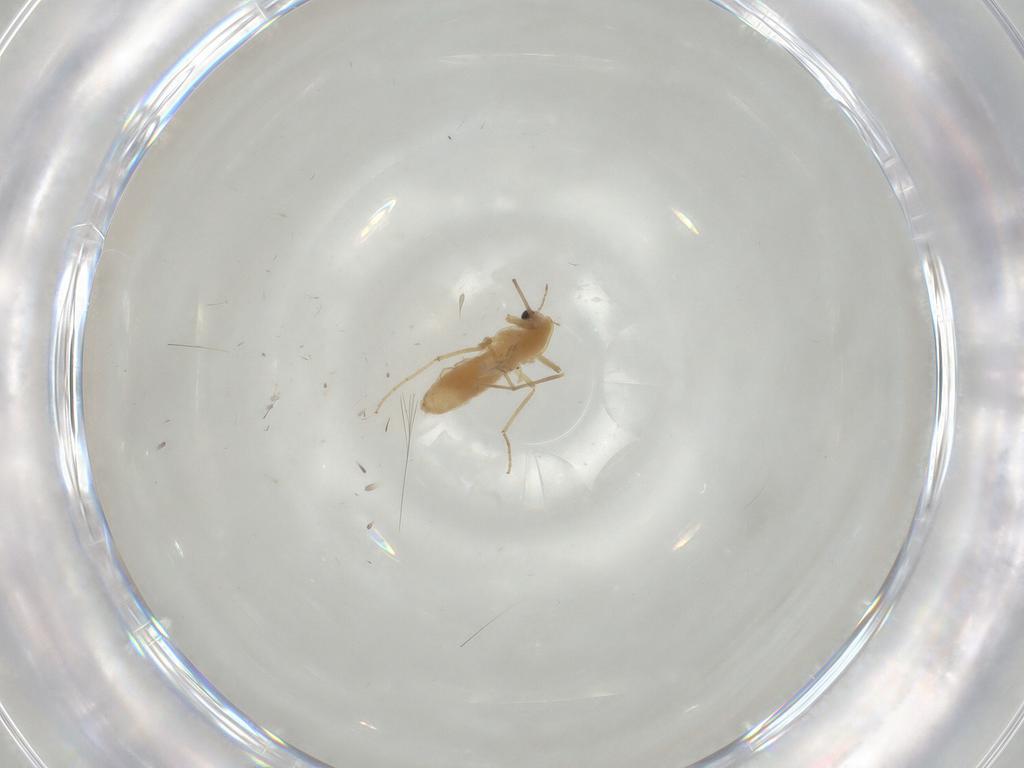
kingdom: Animalia
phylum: Arthropoda
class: Insecta
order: Diptera
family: Chironomidae
